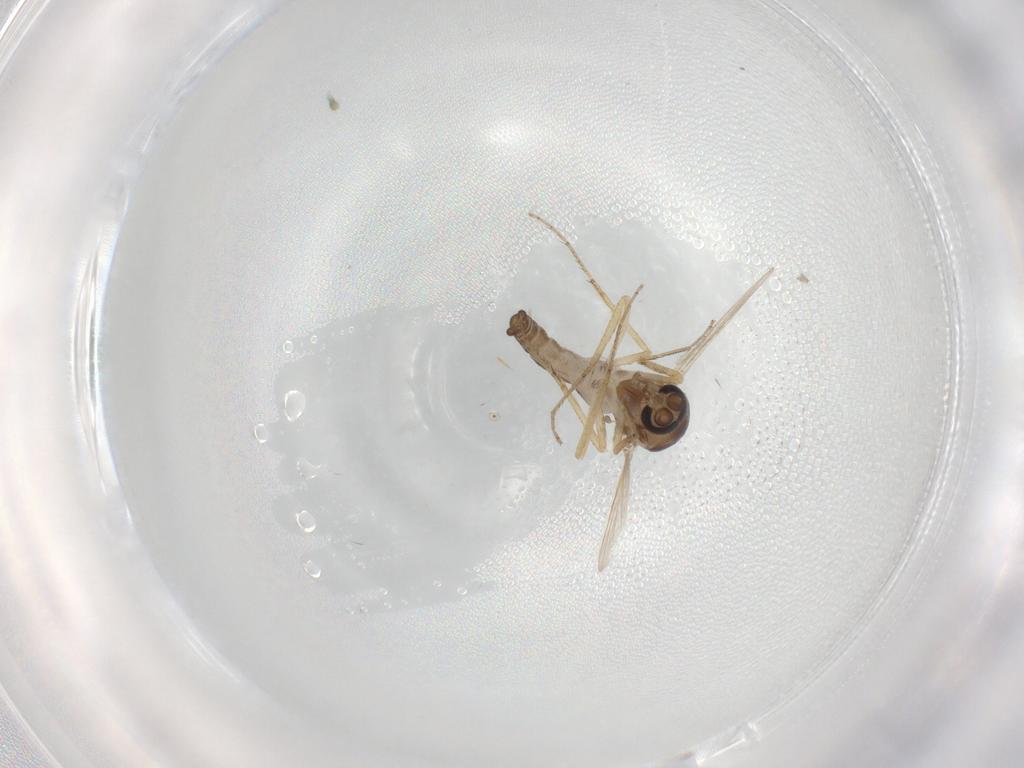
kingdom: Animalia
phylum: Arthropoda
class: Insecta
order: Diptera
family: Ceratopogonidae
